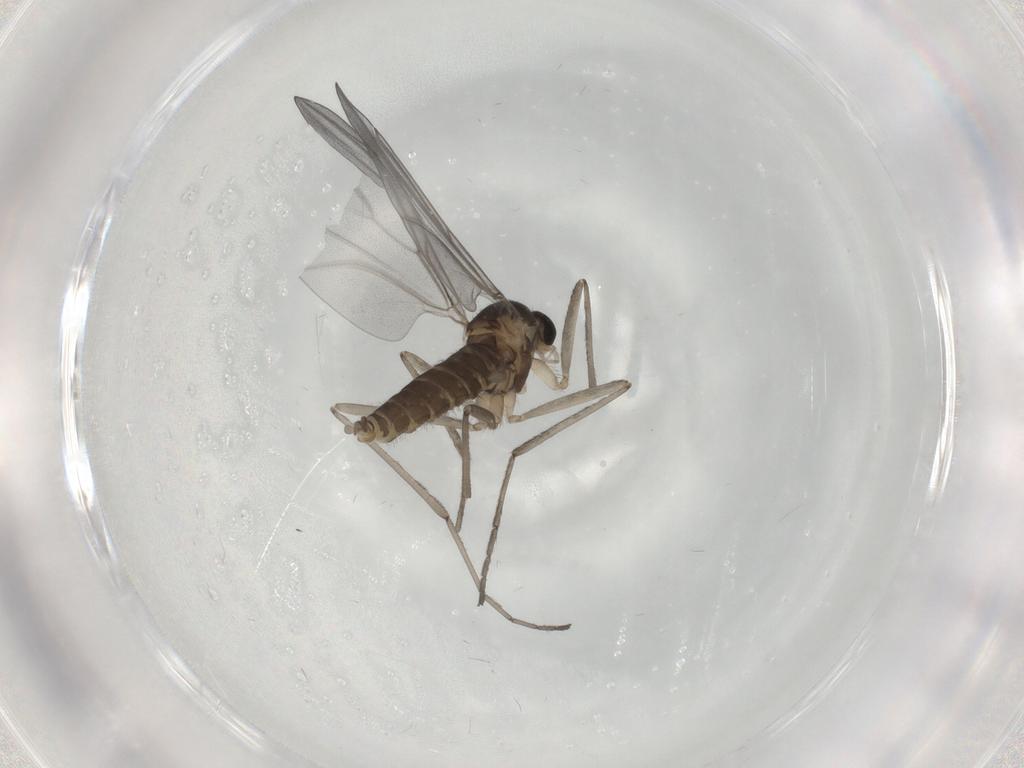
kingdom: Animalia
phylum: Arthropoda
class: Insecta
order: Diptera
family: Cecidomyiidae
